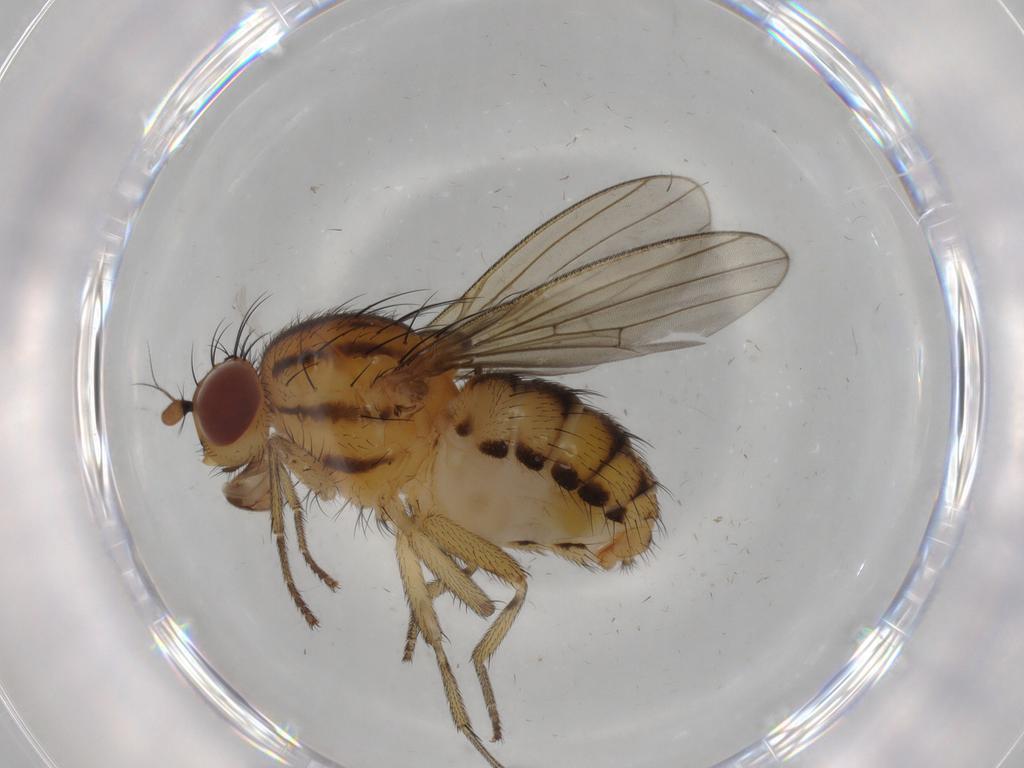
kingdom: Animalia
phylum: Arthropoda
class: Insecta
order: Diptera
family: Dolichopodidae
